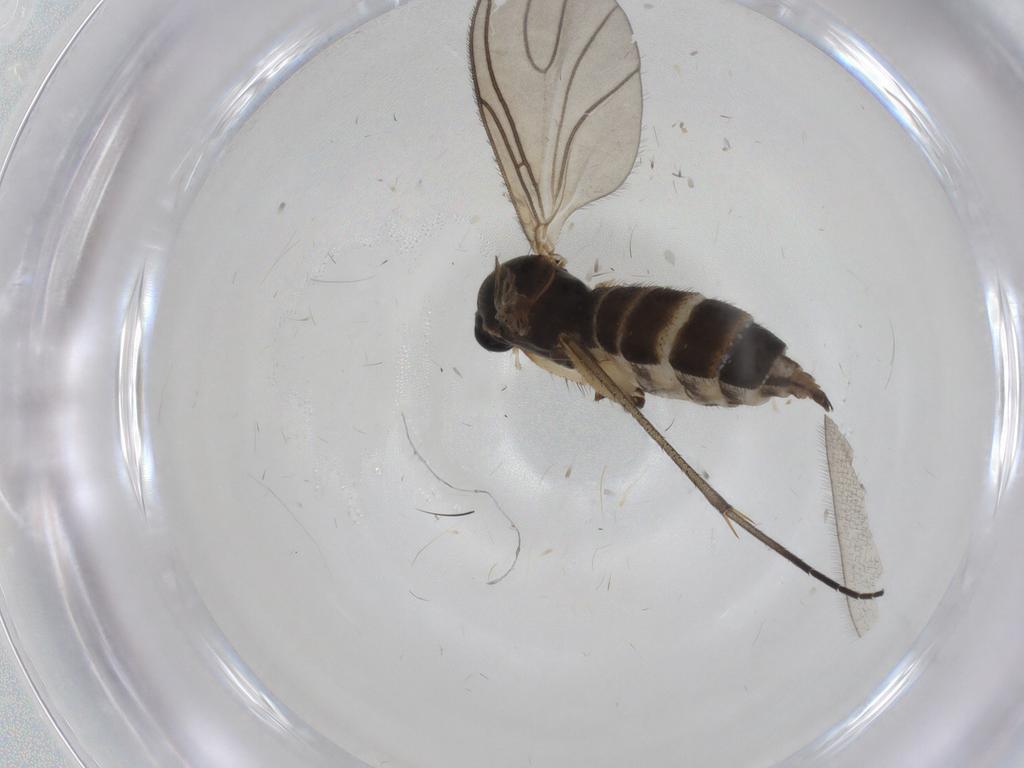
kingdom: Animalia
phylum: Arthropoda
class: Insecta
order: Diptera
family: Sciaridae
